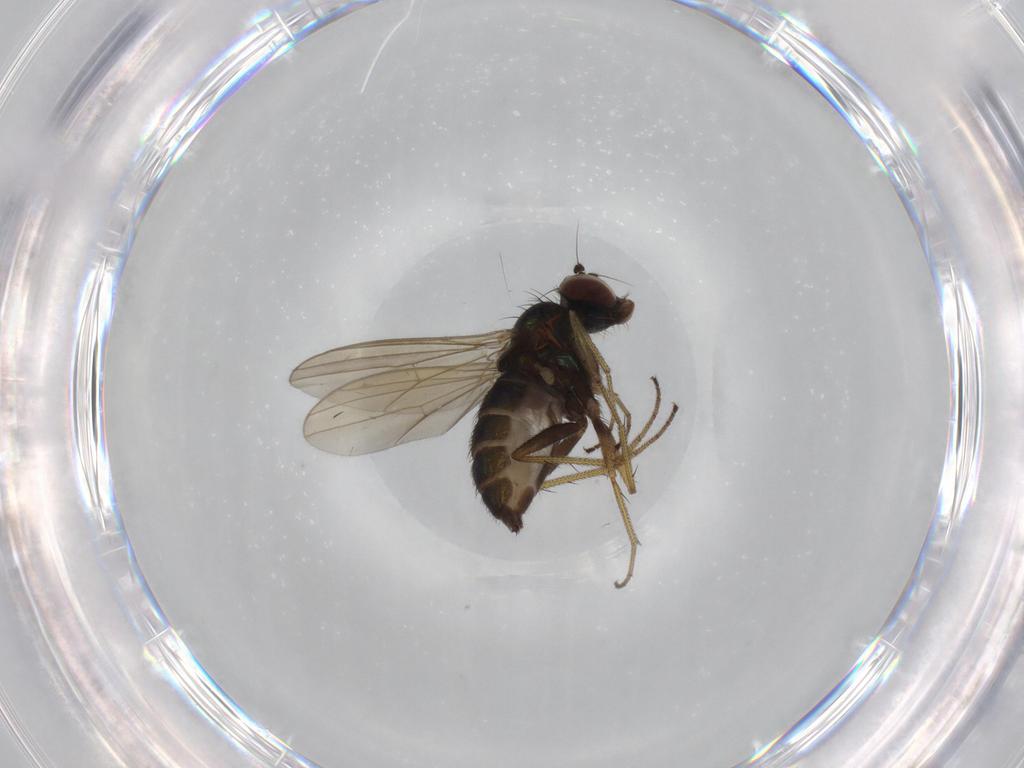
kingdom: Animalia
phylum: Arthropoda
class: Insecta
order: Diptera
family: Dolichopodidae
